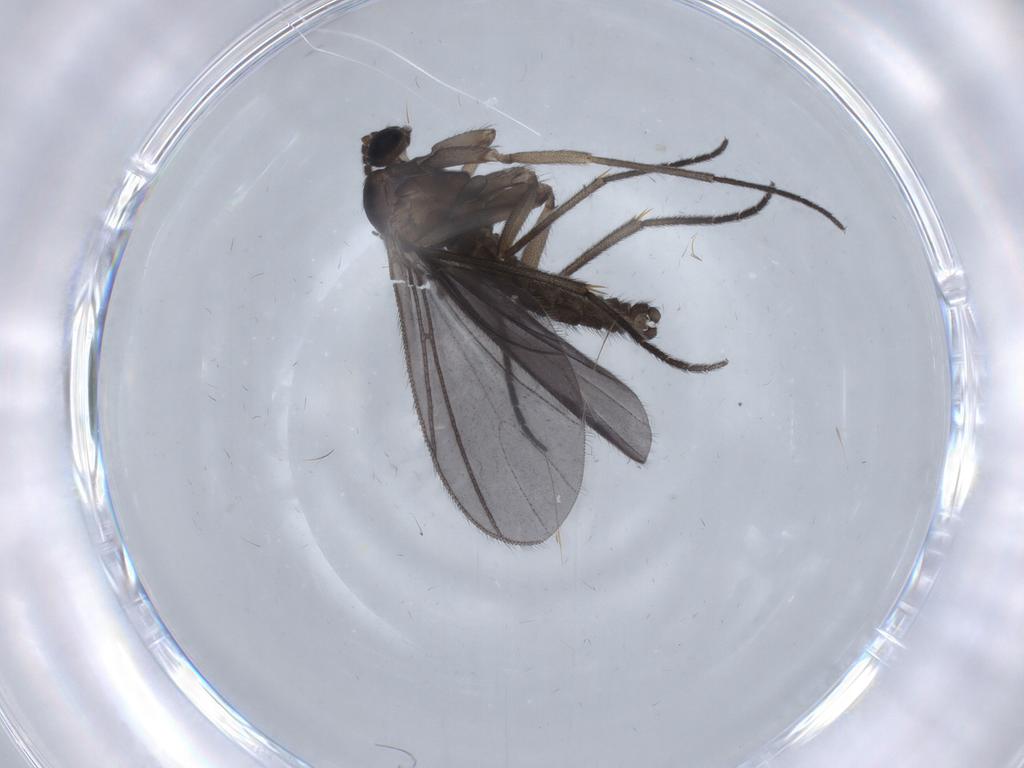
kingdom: Animalia
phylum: Arthropoda
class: Insecta
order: Diptera
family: Sciaridae
